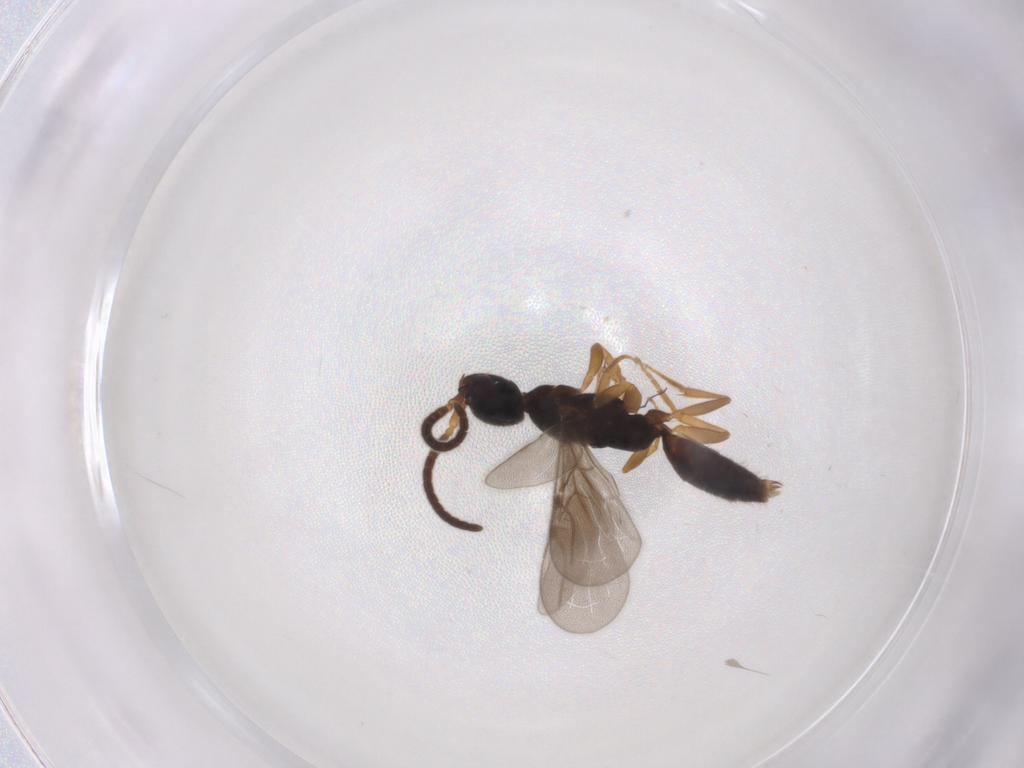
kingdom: Animalia
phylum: Arthropoda
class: Insecta
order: Hymenoptera
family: Bethylidae
